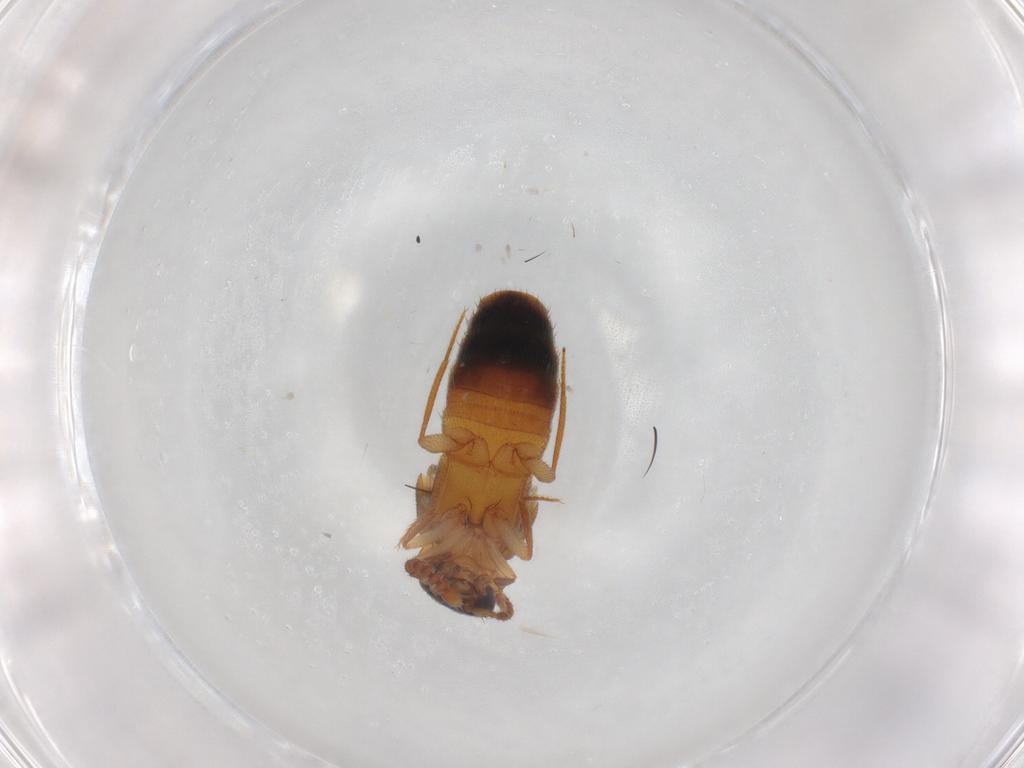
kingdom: Animalia
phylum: Arthropoda
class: Insecta
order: Coleoptera
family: Staphylinidae
